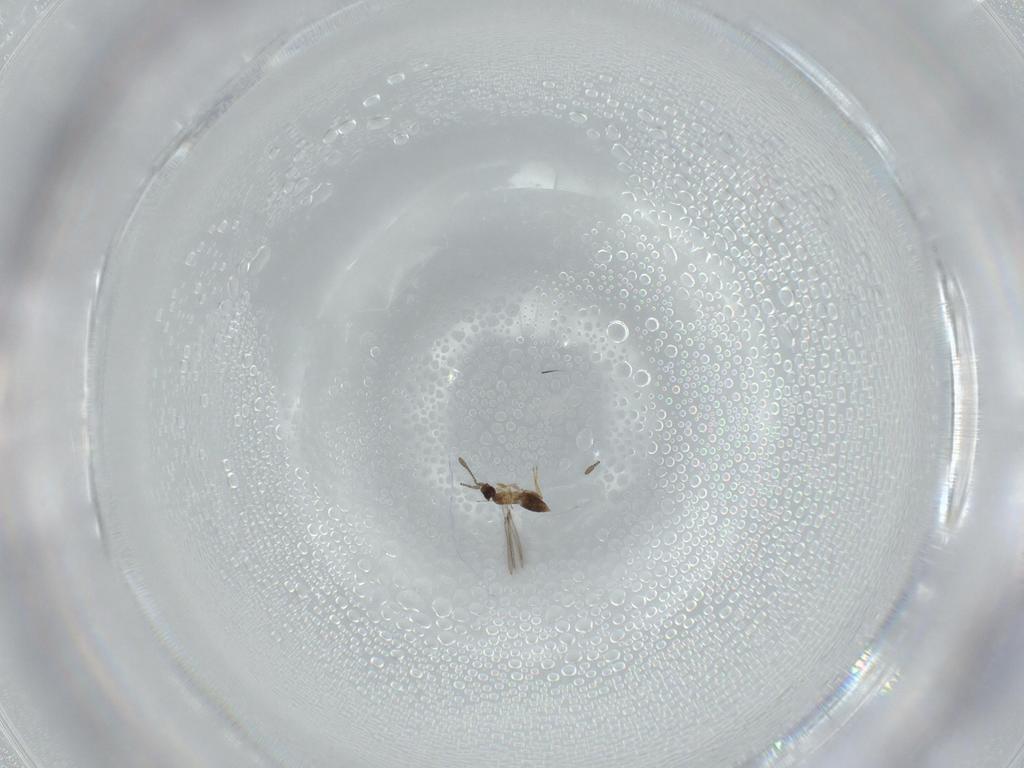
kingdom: Animalia
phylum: Arthropoda
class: Insecta
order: Hymenoptera
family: Mymaridae
